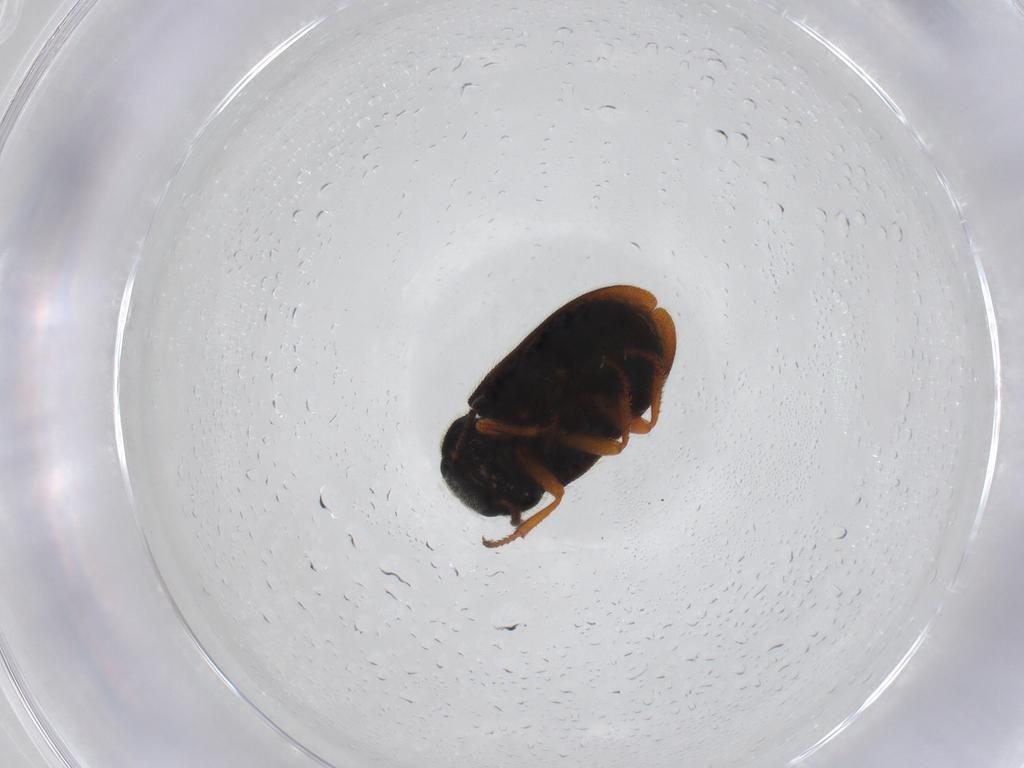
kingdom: Animalia
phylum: Arthropoda
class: Insecta
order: Coleoptera
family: Melyridae
